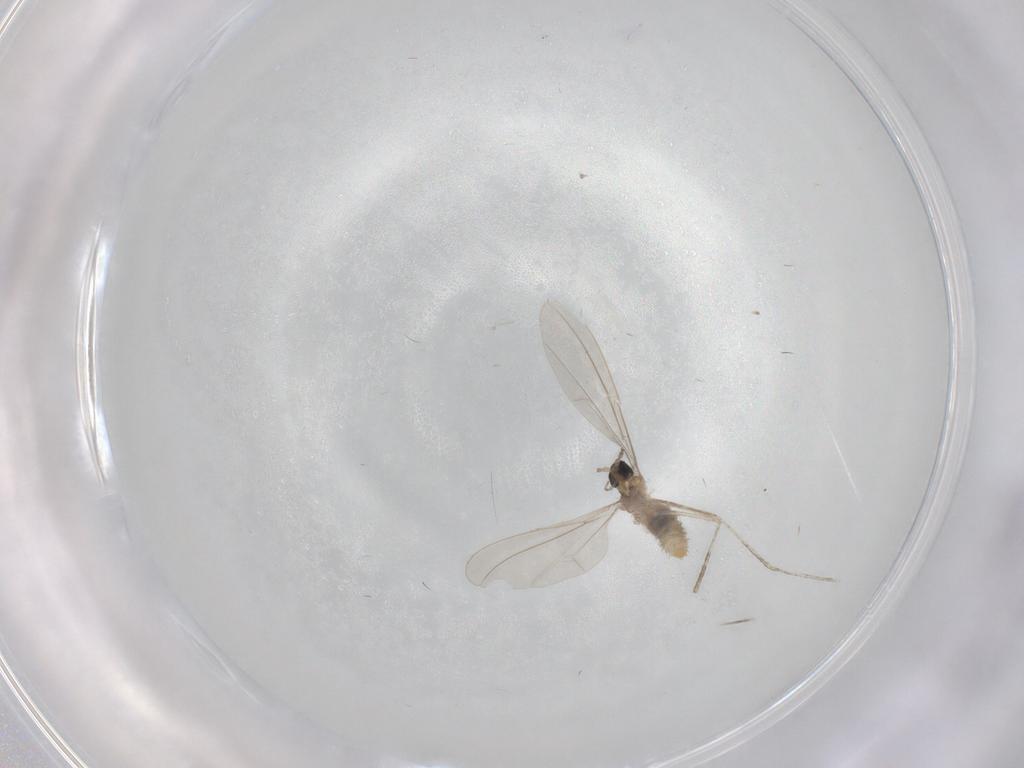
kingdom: Animalia
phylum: Arthropoda
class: Insecta
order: Diptera
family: Cecidomyiidae
